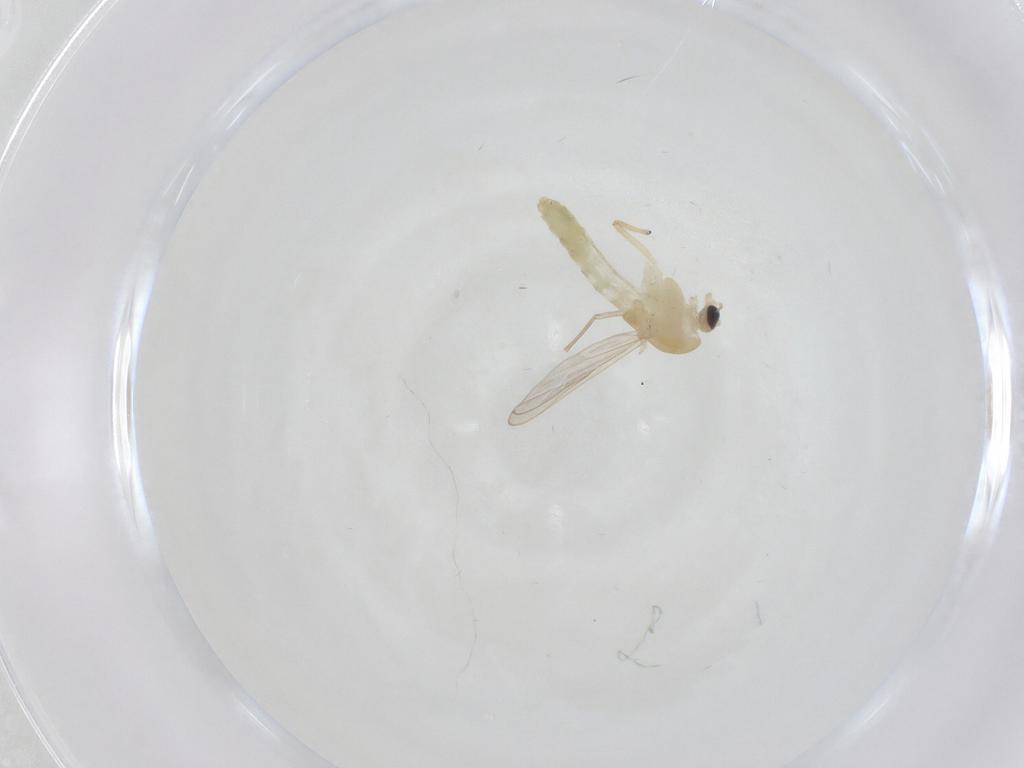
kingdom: Animalia
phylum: Arthropoda
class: Insecta
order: Diptera
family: Chironomidae
